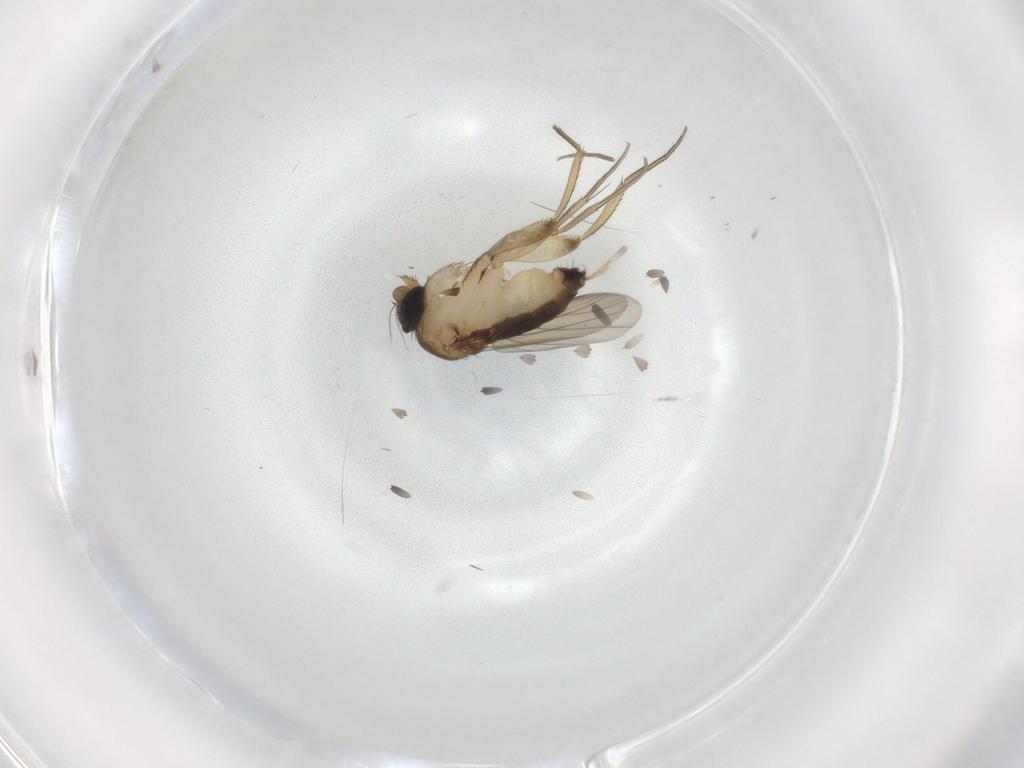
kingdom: Animalia
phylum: Arthropoda
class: Insecta
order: Diptera
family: Phoridae
